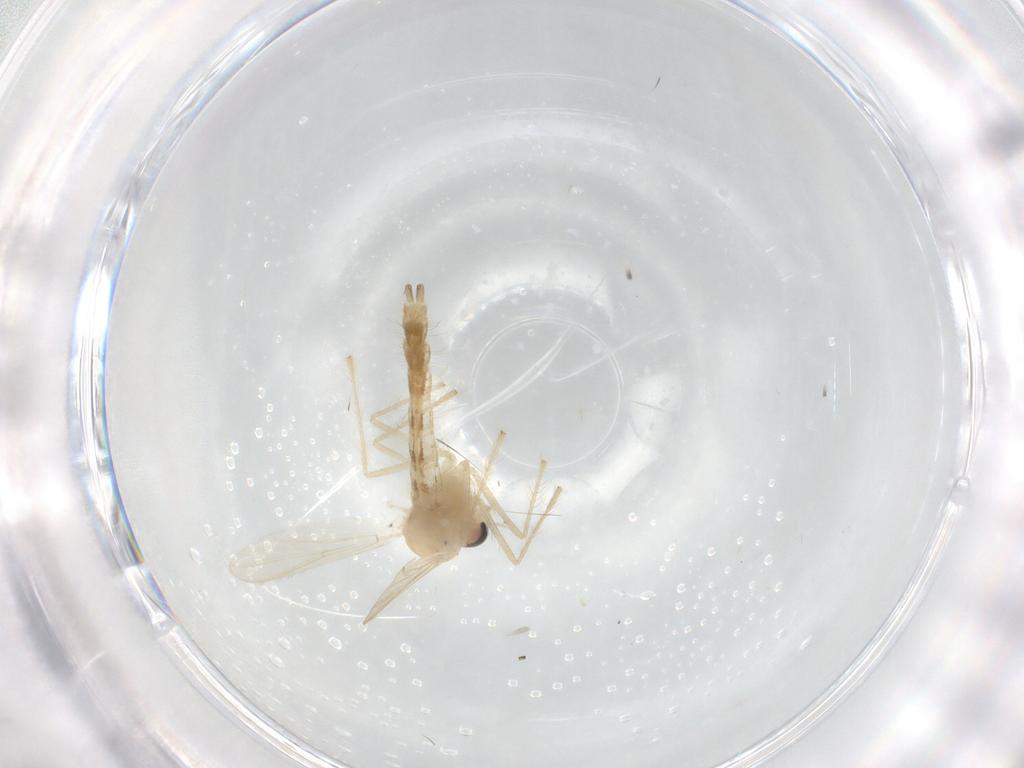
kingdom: Animalia
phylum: Arthropoda
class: Insecta
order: Diptera
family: Chironomidae
